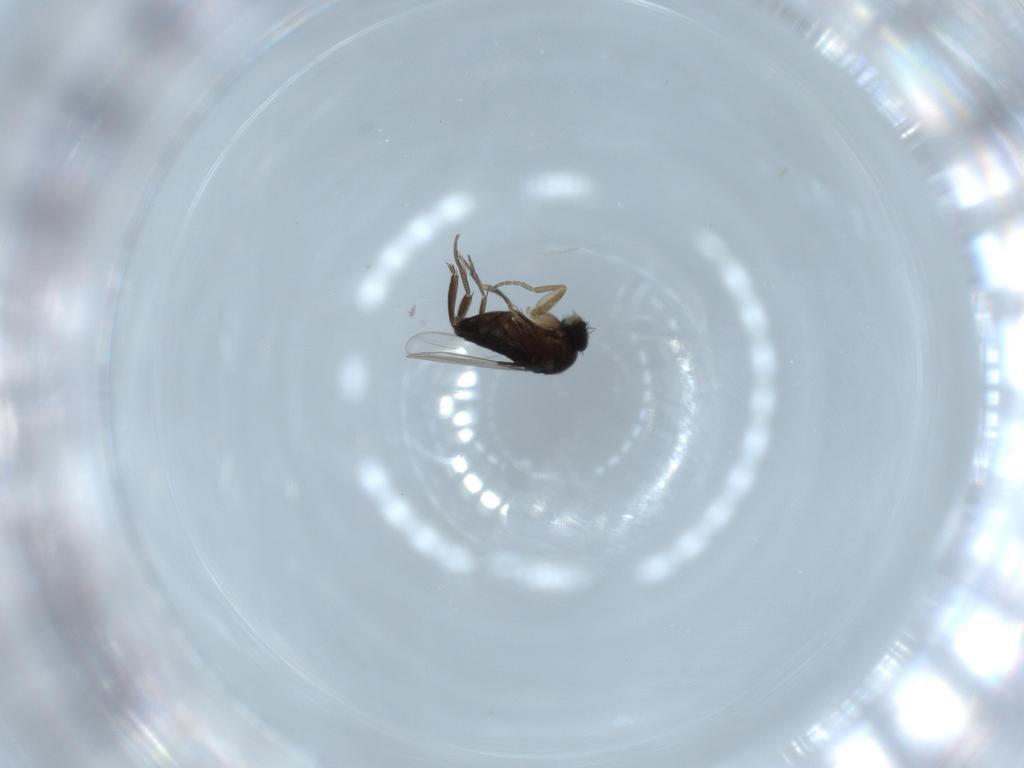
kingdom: Animalia
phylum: Arthropoda
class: Insecta
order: Diptera
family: Phoridae
